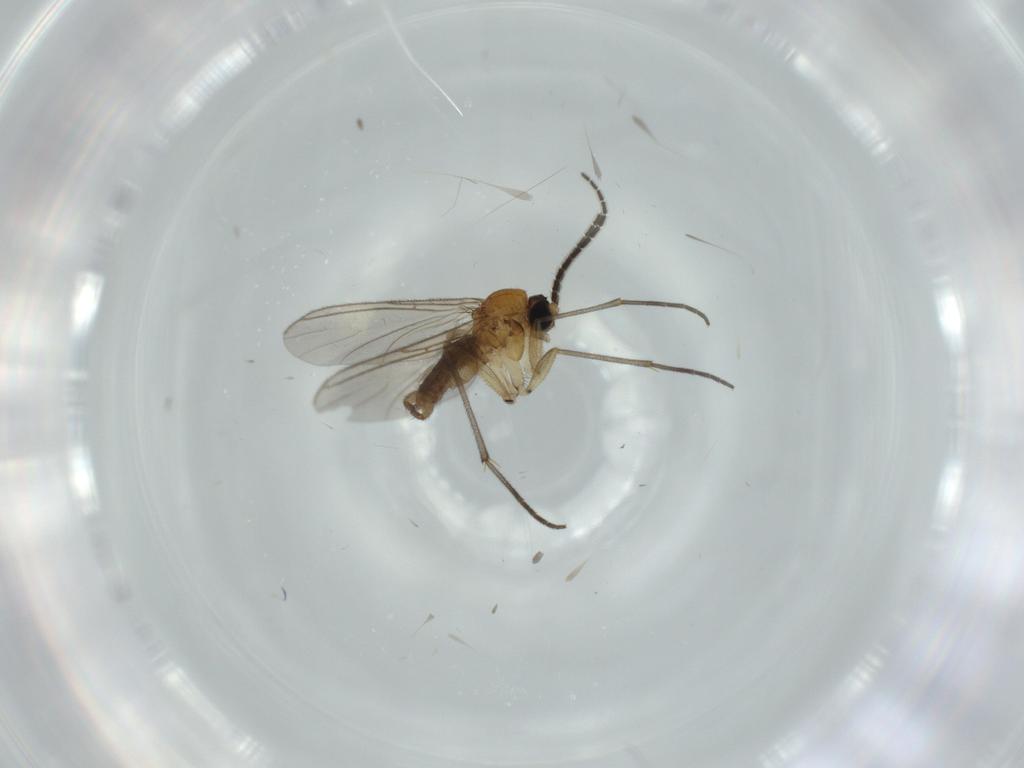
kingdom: Animalia
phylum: Arthropoda
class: Insecta
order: Diptera
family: Sciaridae
